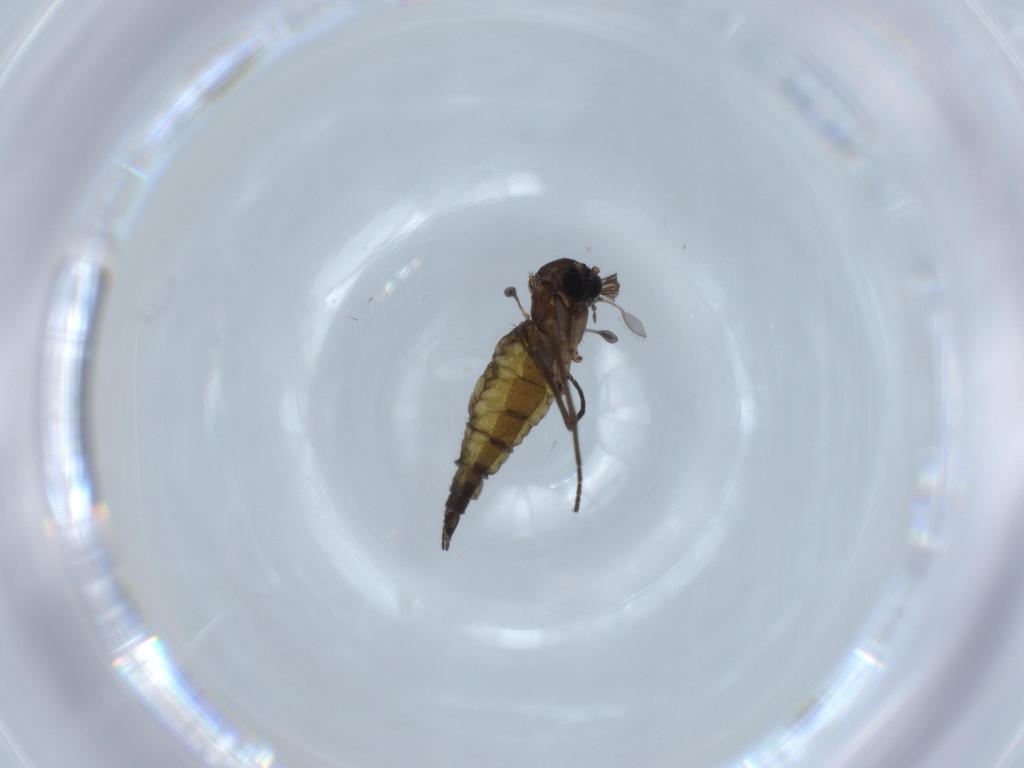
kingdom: Animalia
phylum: Arthropoda
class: Insecta
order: Diptera
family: Sciaridae
